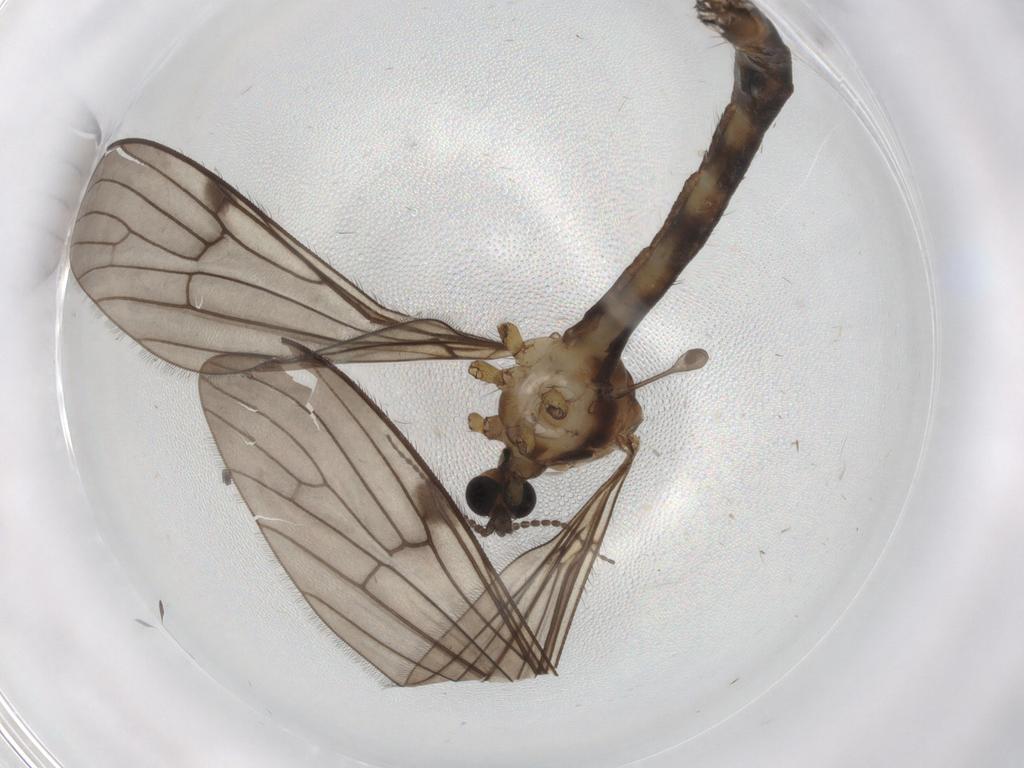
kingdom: Animalia
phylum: Arthropoda
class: Insecta
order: Diptera
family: Limoniidae
